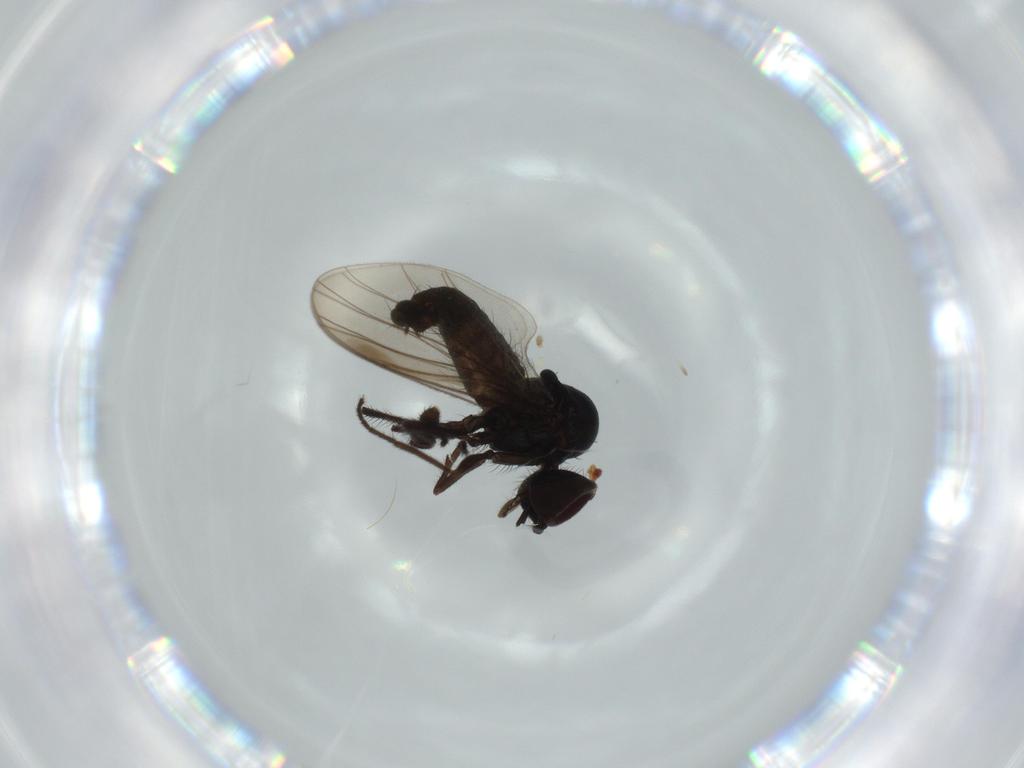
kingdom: Animalia
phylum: Arthropoda
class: Insecta
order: Diptera
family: Dolichopodidae
